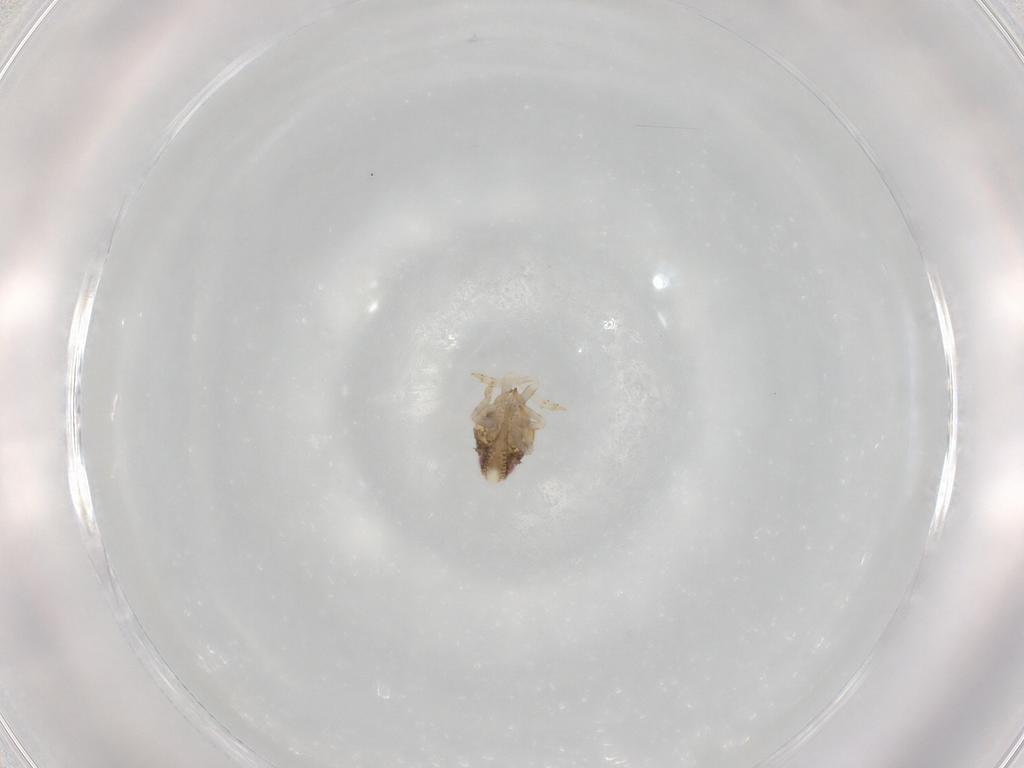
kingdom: Animalia
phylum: Arthropoda
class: Insecta
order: Hemiptera
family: Acanaloniidae
